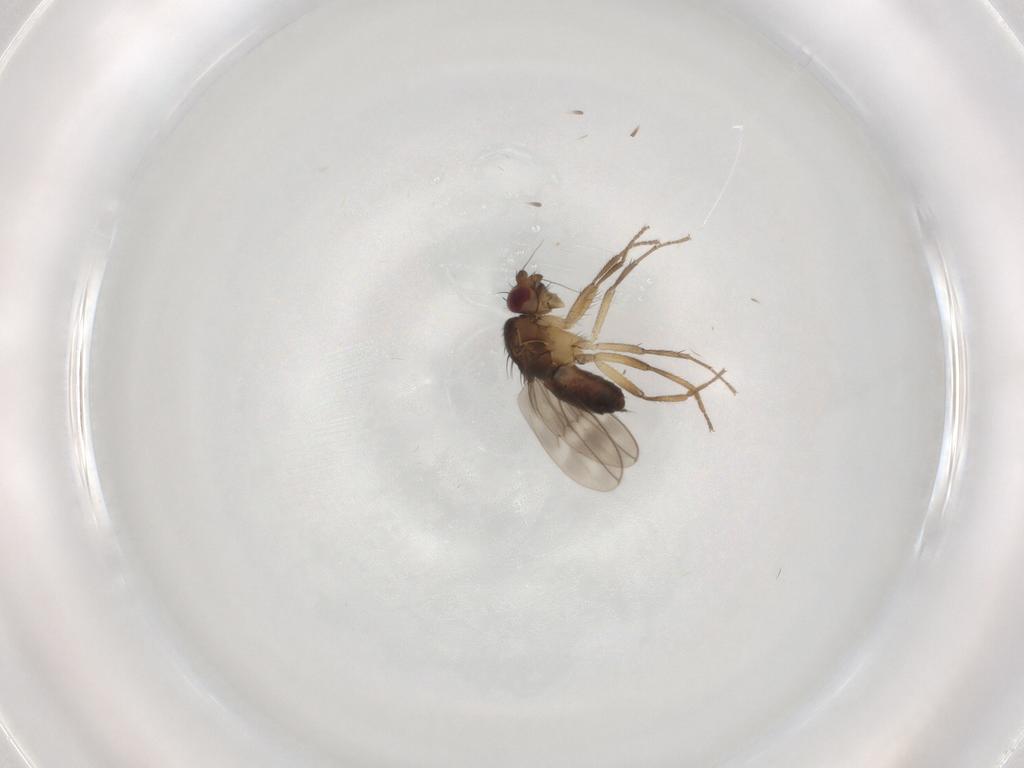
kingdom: Animalia
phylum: Arthropoda
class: Insecta
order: Diptera
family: Sphaeroceridae
